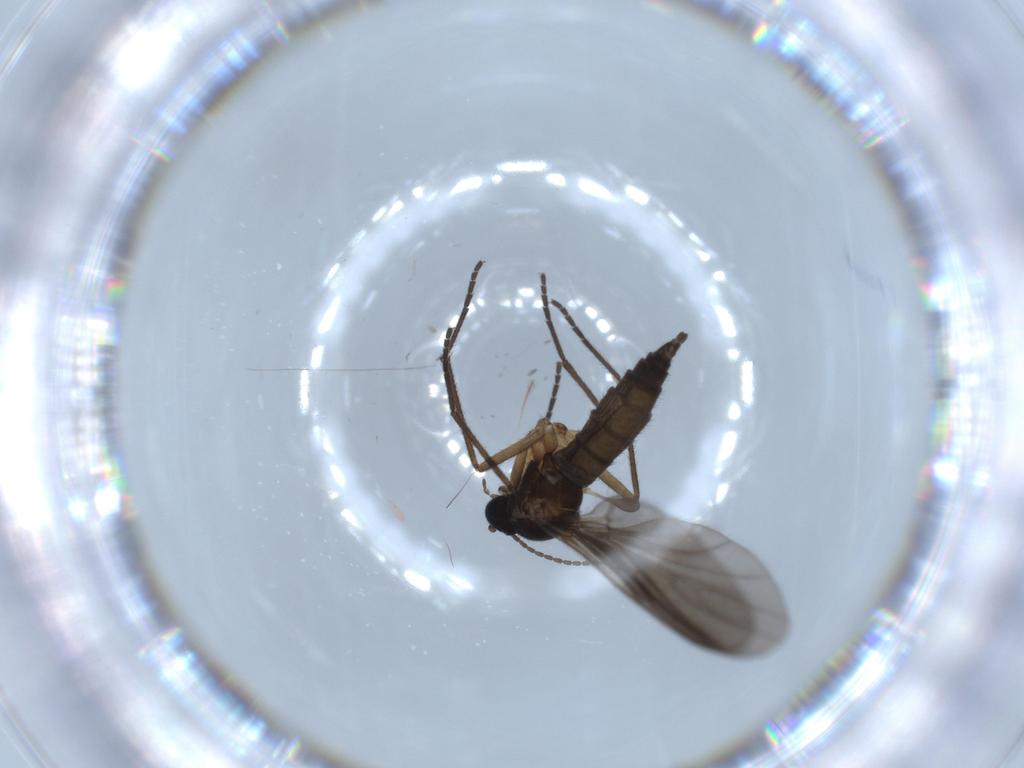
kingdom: Animalia
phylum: Arthropoda
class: Insecta
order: Diptera
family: Sciaridae
